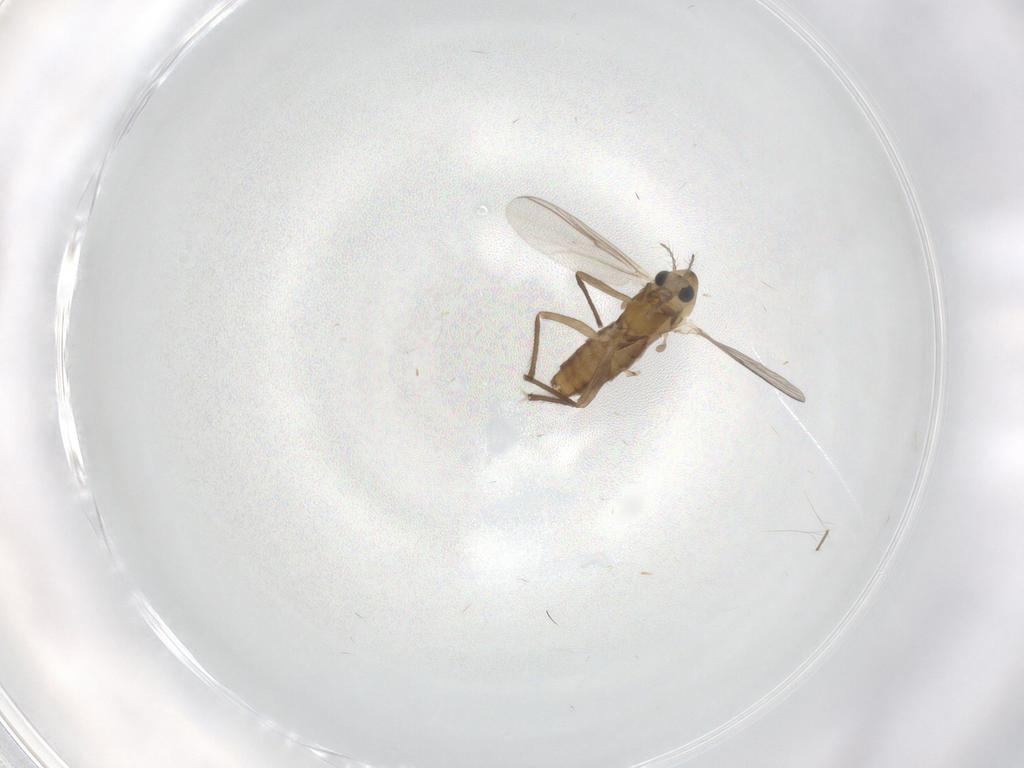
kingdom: Animalia
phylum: Arthropoda
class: Insecta
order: Diptera
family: Chironomidae
